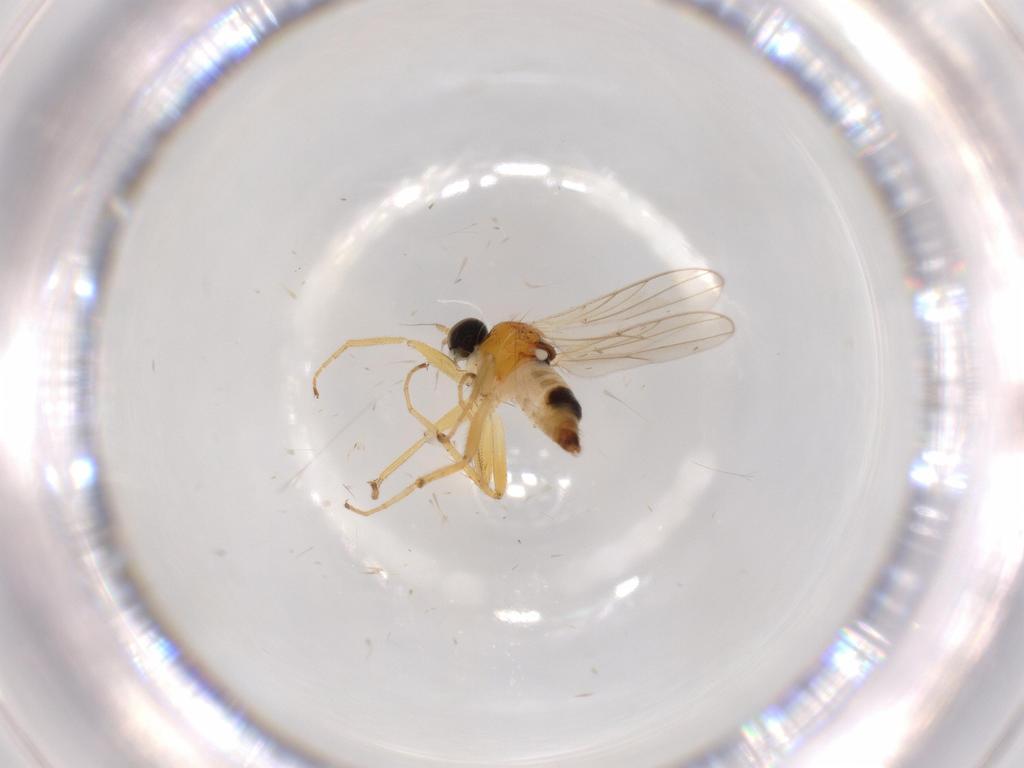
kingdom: Animalia
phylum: Arthropoda
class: Insecta
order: Diptera
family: Hybotidae
